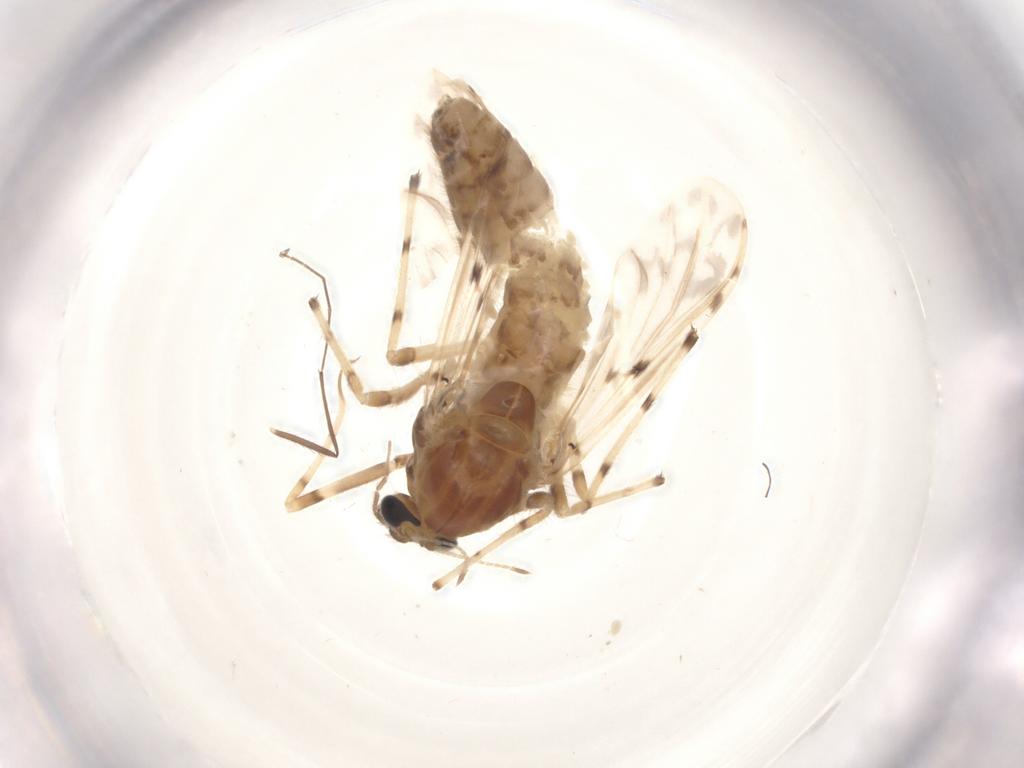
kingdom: Animalia
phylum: Arthropoda
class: Insecta
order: Diptera
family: Chironomidae
